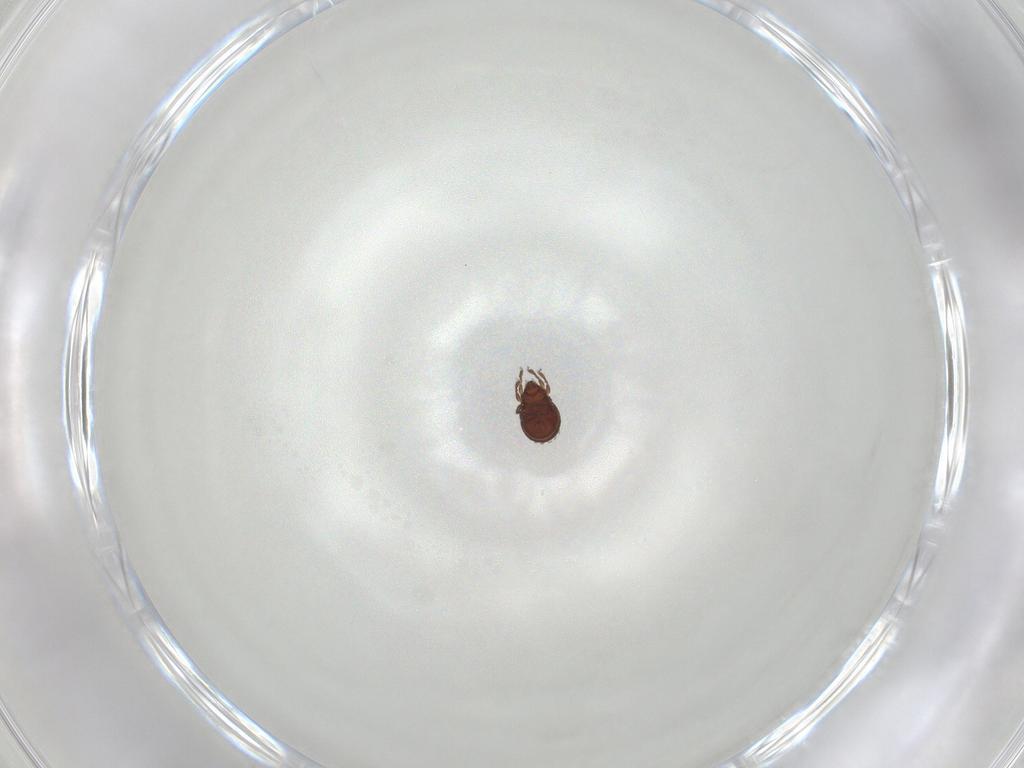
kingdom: Animalia
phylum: Arthropoda
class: Arachnida
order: Sarcoptiformes
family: Oribatulidae
